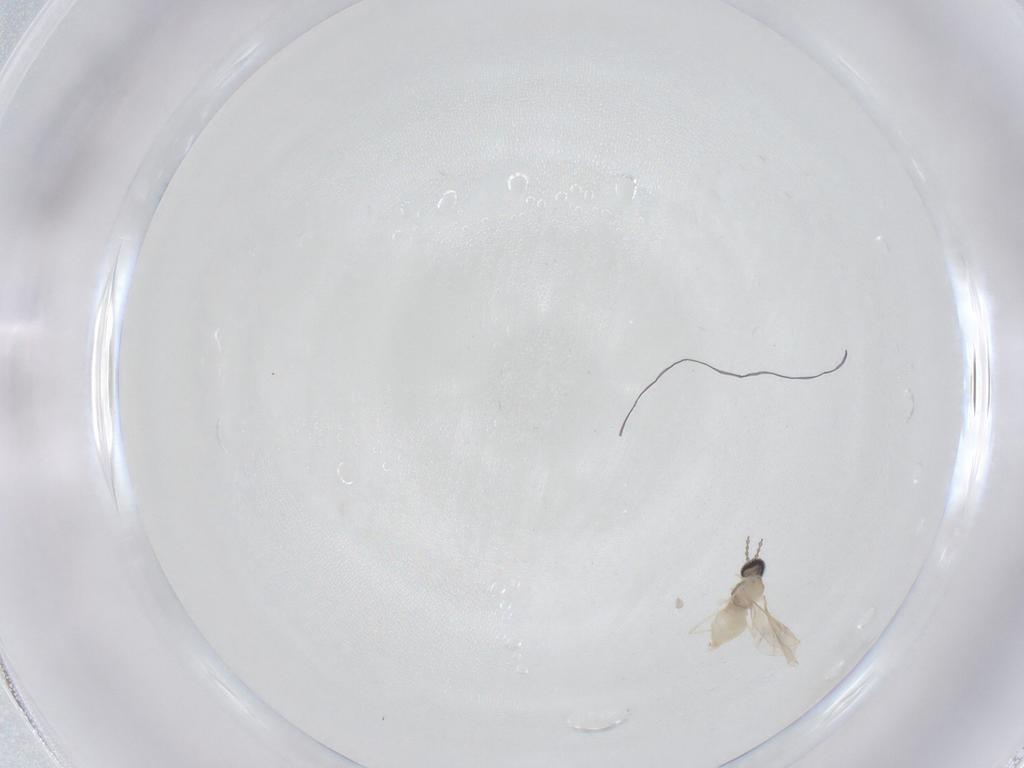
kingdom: Animalia
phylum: Arthropoda
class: Insecta
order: Diptera
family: Cecidomyiidae
